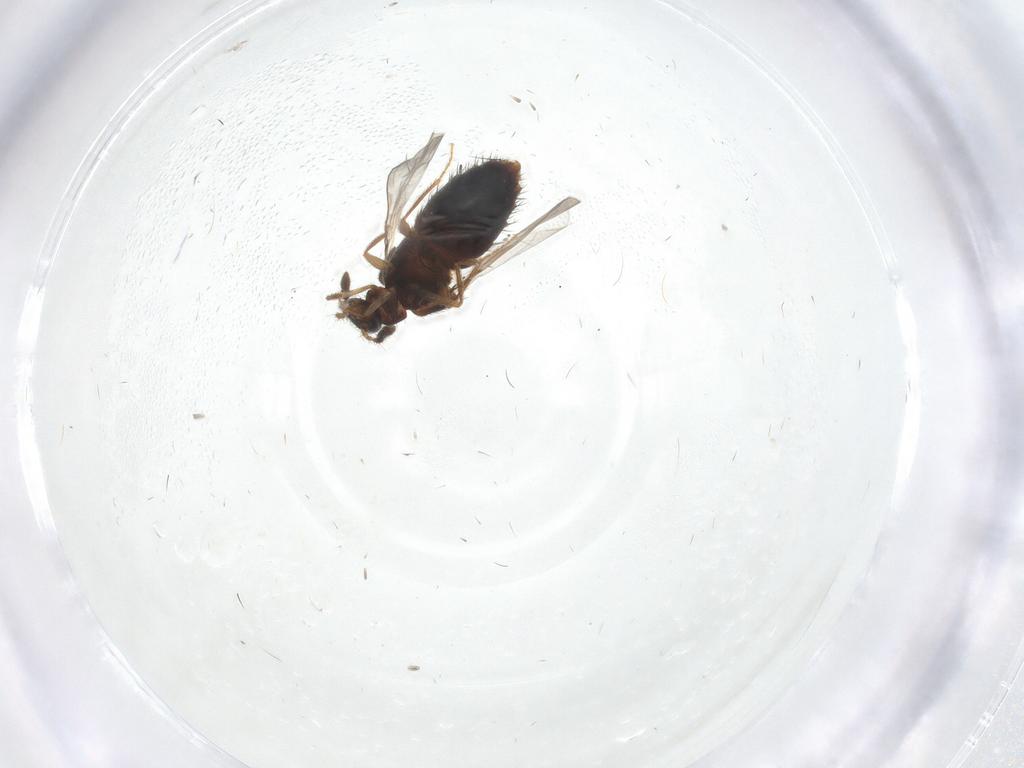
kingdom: Animalia
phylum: Arthropoda
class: Insecta
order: Coleoptera
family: Staphylinidae
